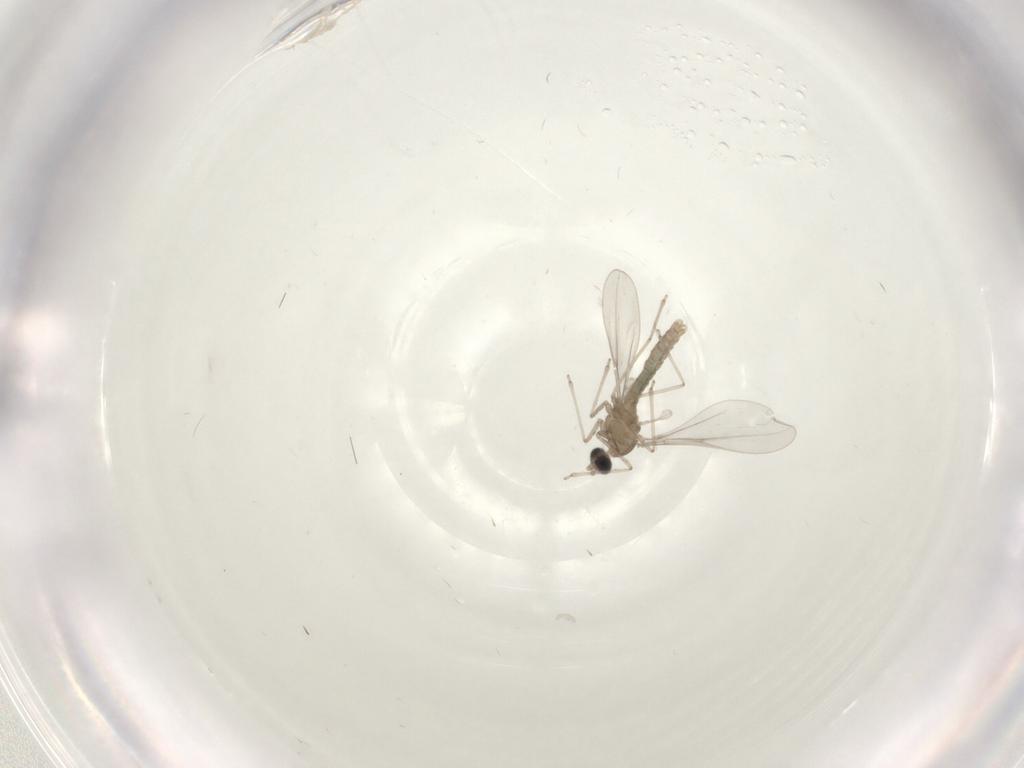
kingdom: Animalia
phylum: Arthropoda
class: Insecta
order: Diptera
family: Cecidomyiidae
